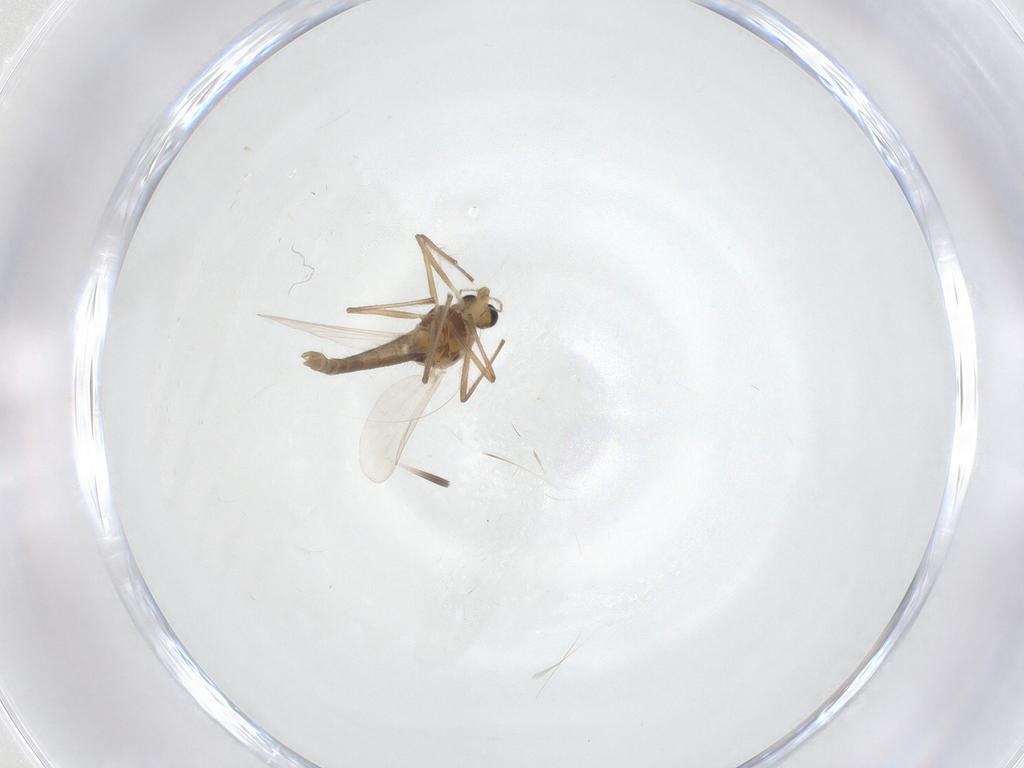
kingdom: Animalia
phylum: Arthropoda
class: Insecta
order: Diptera
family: Chironomidae
